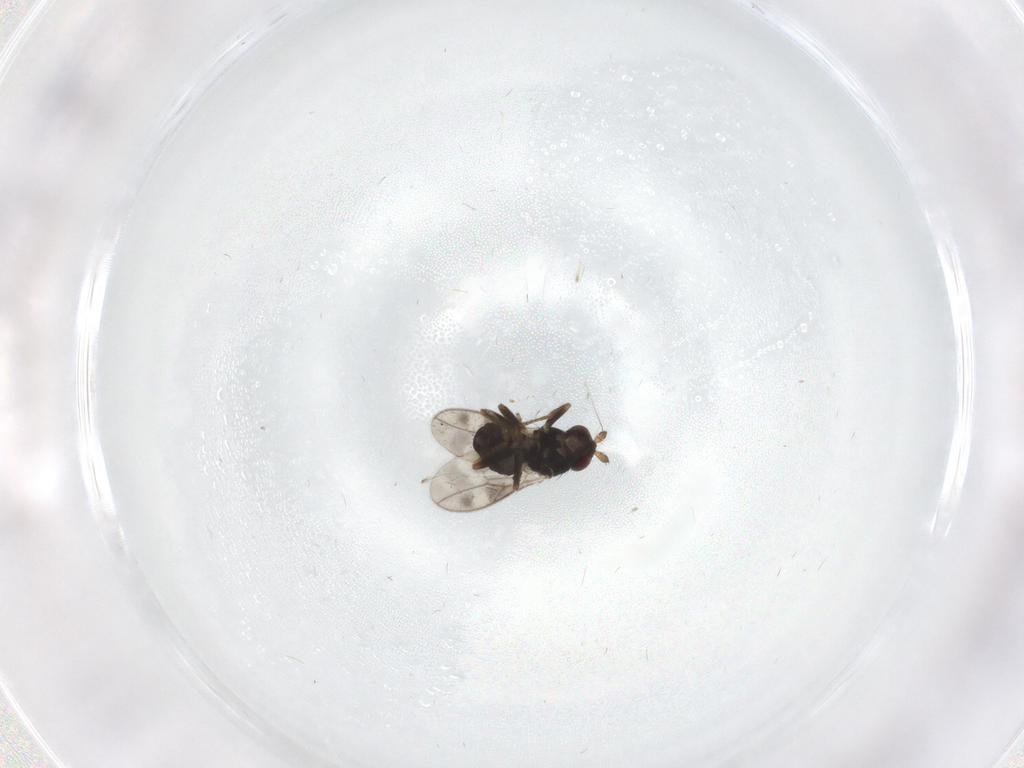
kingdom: Animalia
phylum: Arthropoda
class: Insecta
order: Diptera
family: Sphaeroceridae
